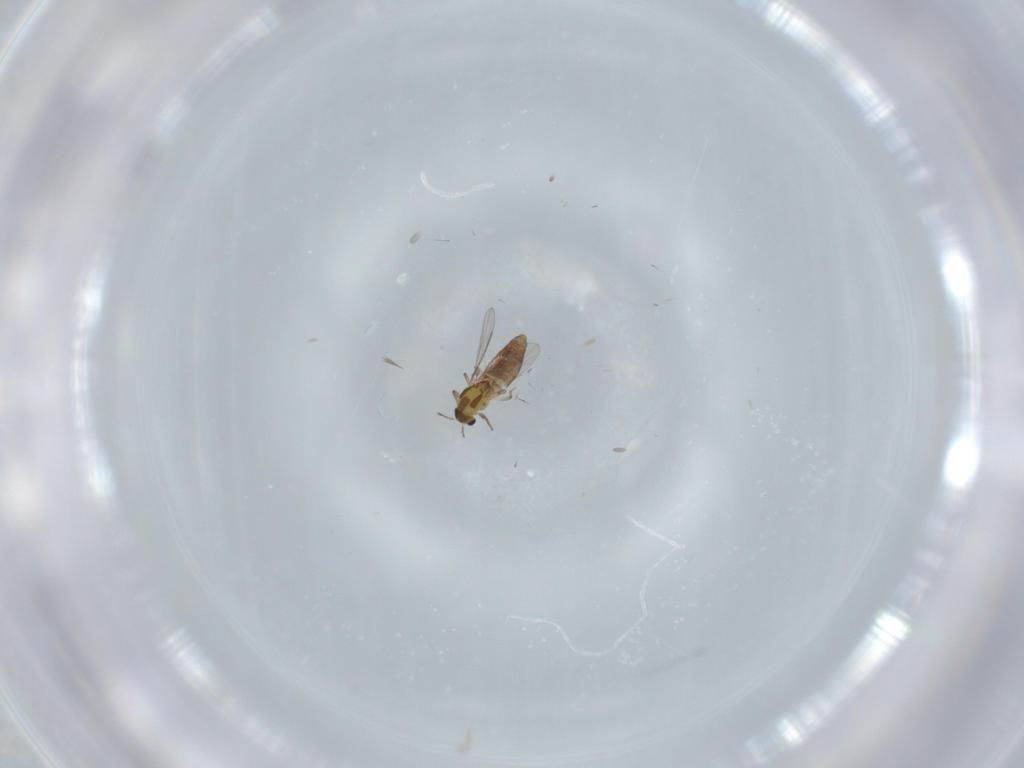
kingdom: Animalia
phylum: Arthropoda
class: Insecta
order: Diptera
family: Chironomidae
